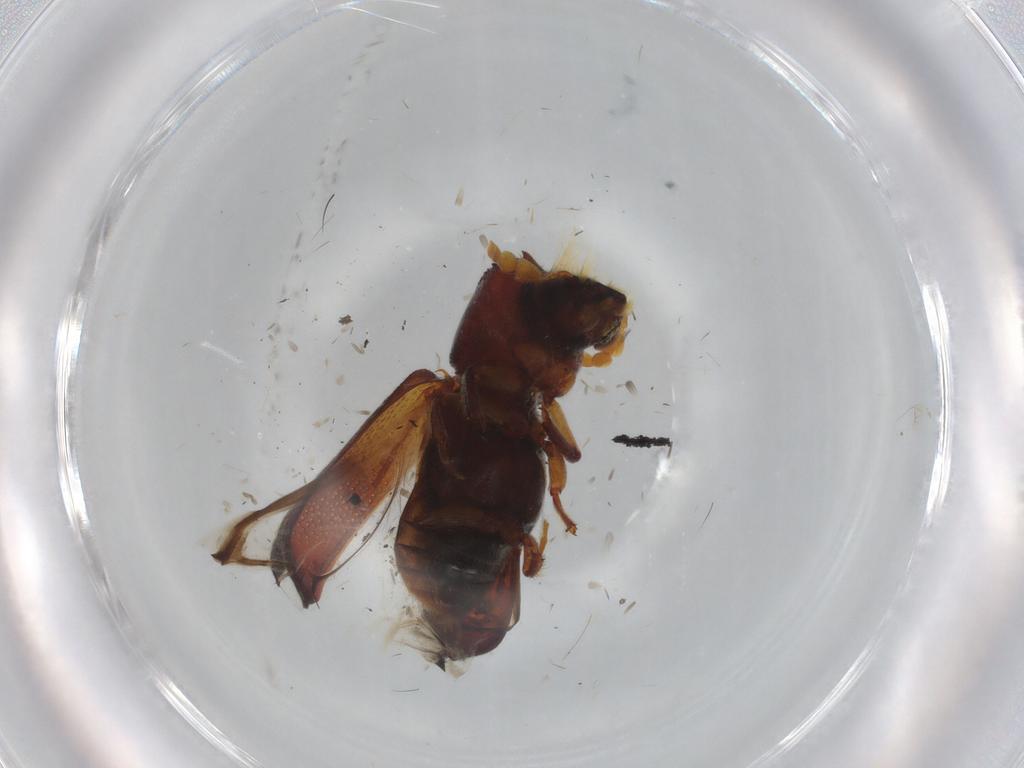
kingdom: Animalia
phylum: Arthropoda
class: Insecta
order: Coleoptera
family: Bostrichidae
